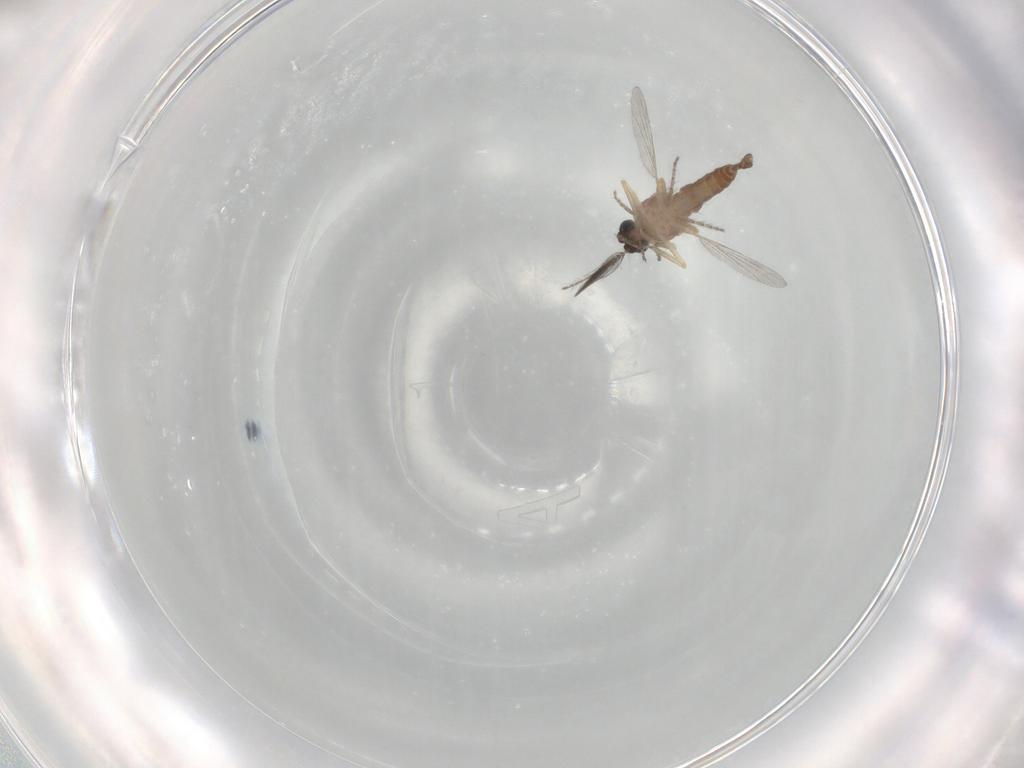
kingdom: Animalia
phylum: Arthropoda
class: Insecta
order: Diptera
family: Ceratopogonidae
